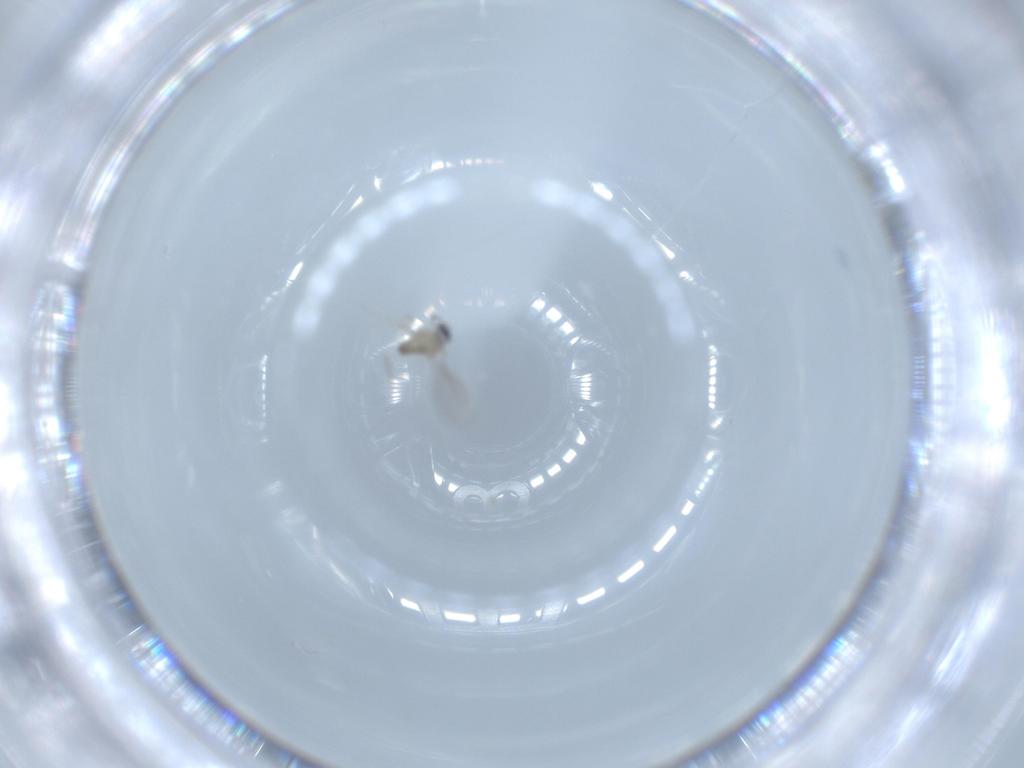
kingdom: Animalia
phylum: Arthropoda
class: Insecta
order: Diptera
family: Cecidomyiidae
